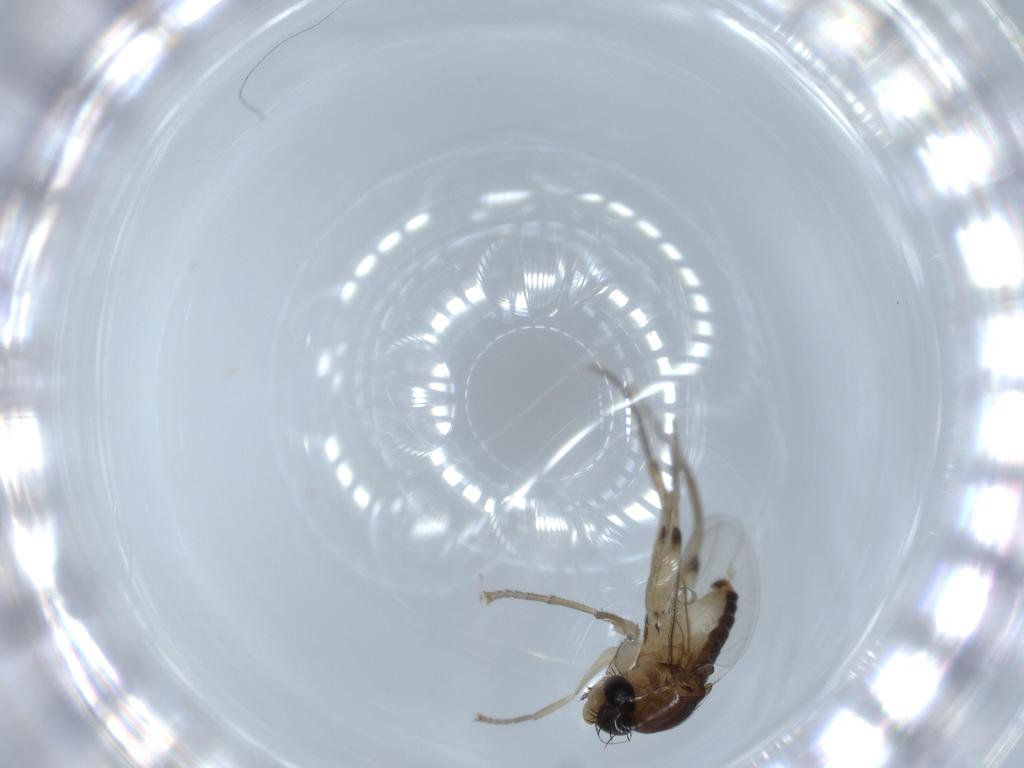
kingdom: Animalia
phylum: Arthropoda
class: Insecta
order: Diptera
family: Phoridae
